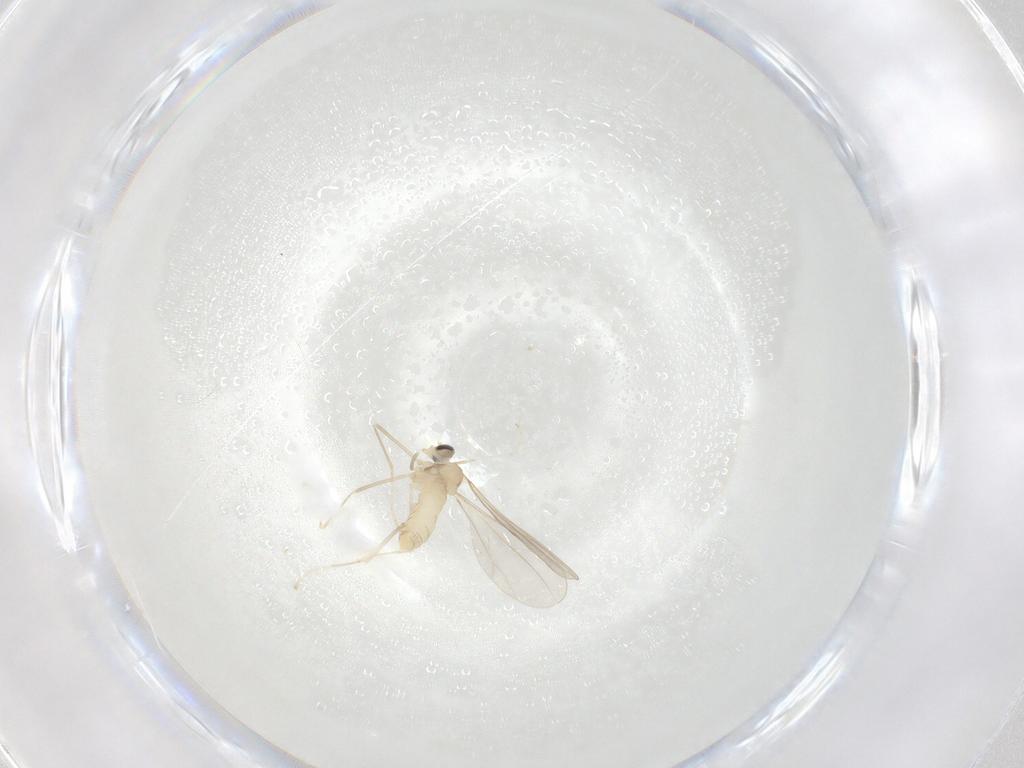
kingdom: Animalia
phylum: Arthropoda
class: Insecta
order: Diptera
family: Cecidomyiidae
